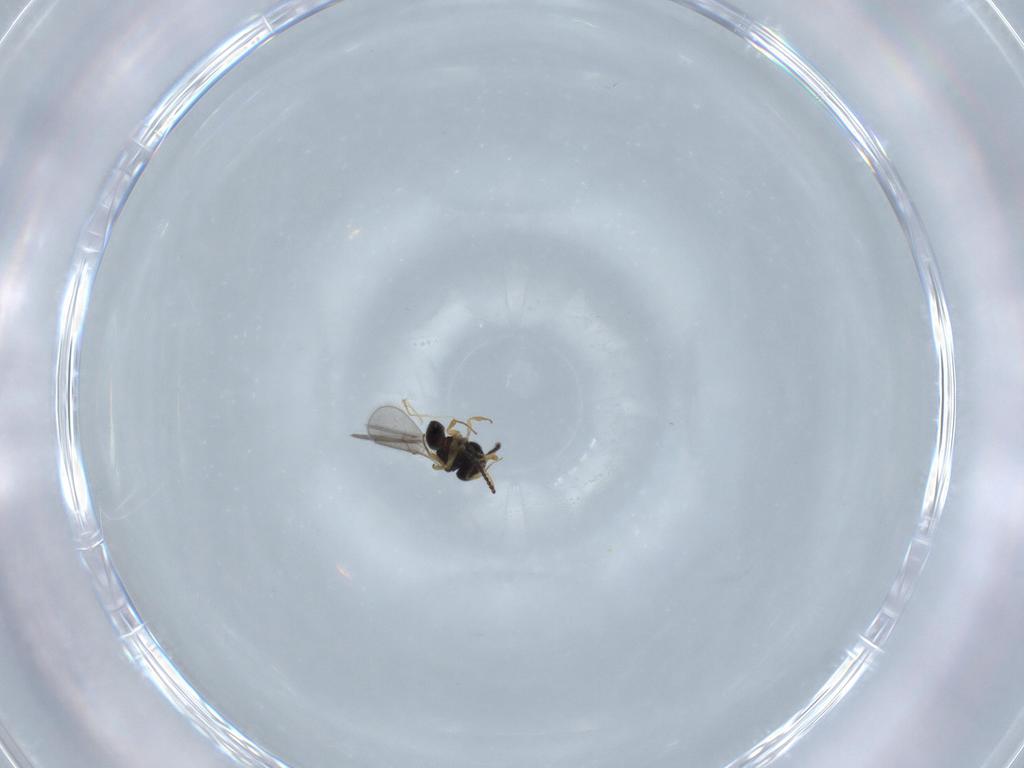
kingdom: Animalia
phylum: Arthropoda
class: Insecta
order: Hymenoptera
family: Scelionidae
